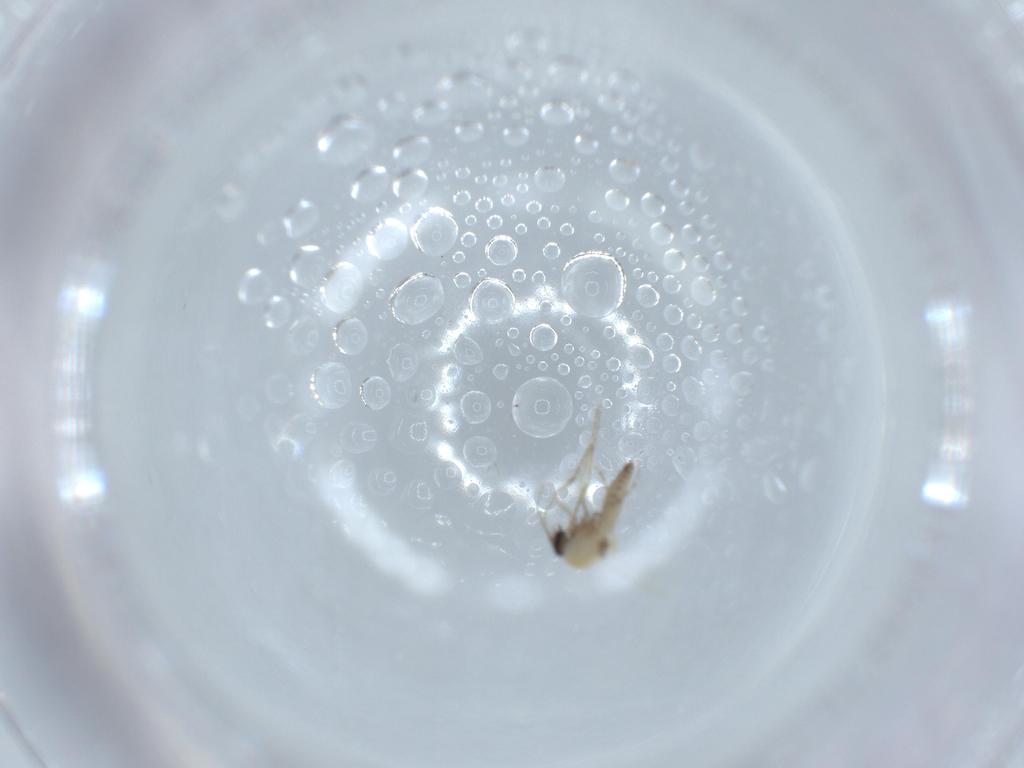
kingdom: Animalia
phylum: Arthropoda
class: Insecta
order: Diptera
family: Ceratopogonidae
